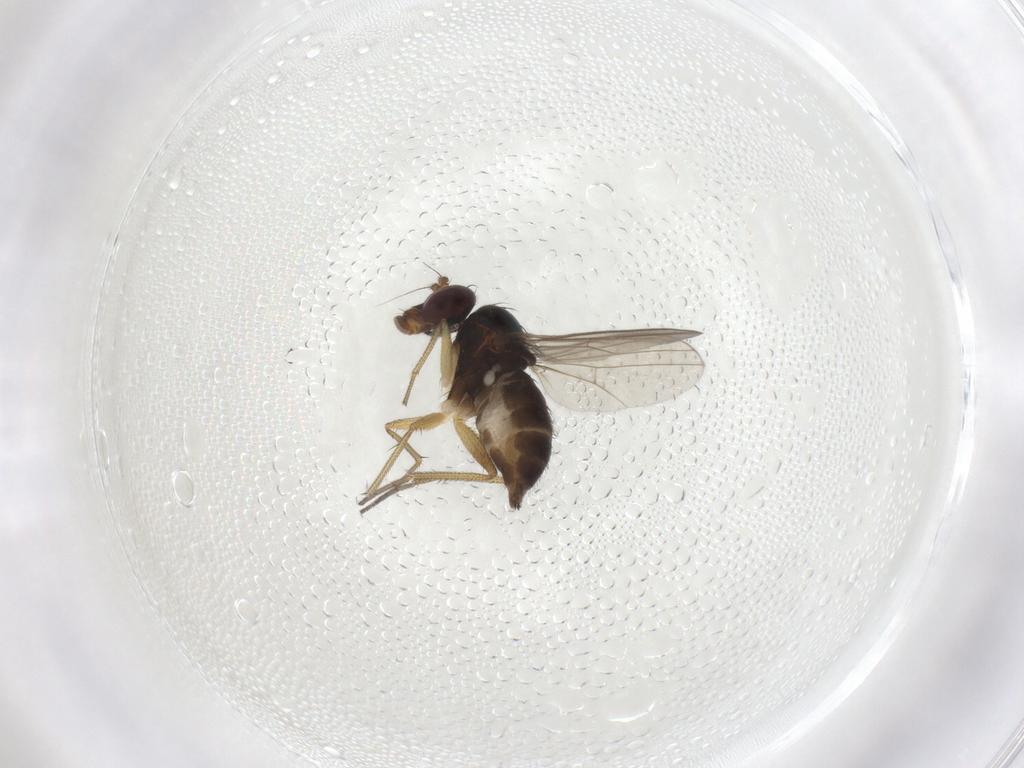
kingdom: Animalia
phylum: Arthropoda
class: Insecta
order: Diptera
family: Dolichopodidae
